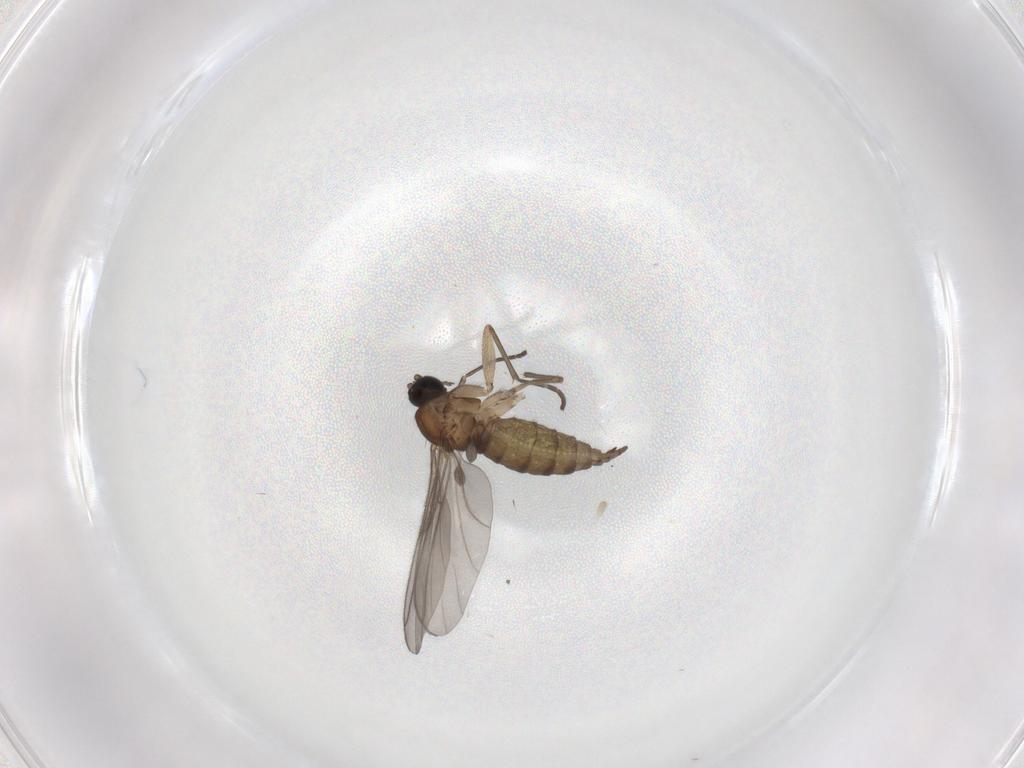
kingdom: Animalia
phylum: Arthropoda
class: Insecta
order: Diptera
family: Sciaridae
